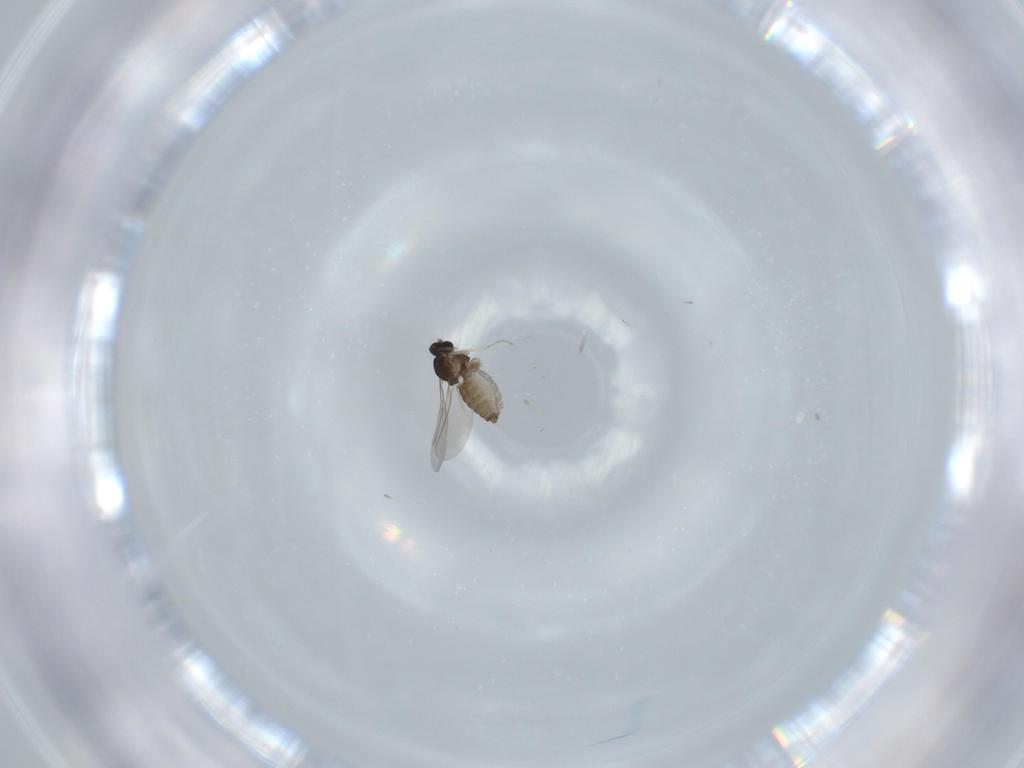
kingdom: Animalia
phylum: Arthropoda
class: Insecta
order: Diptera
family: Cecidomyiidae
